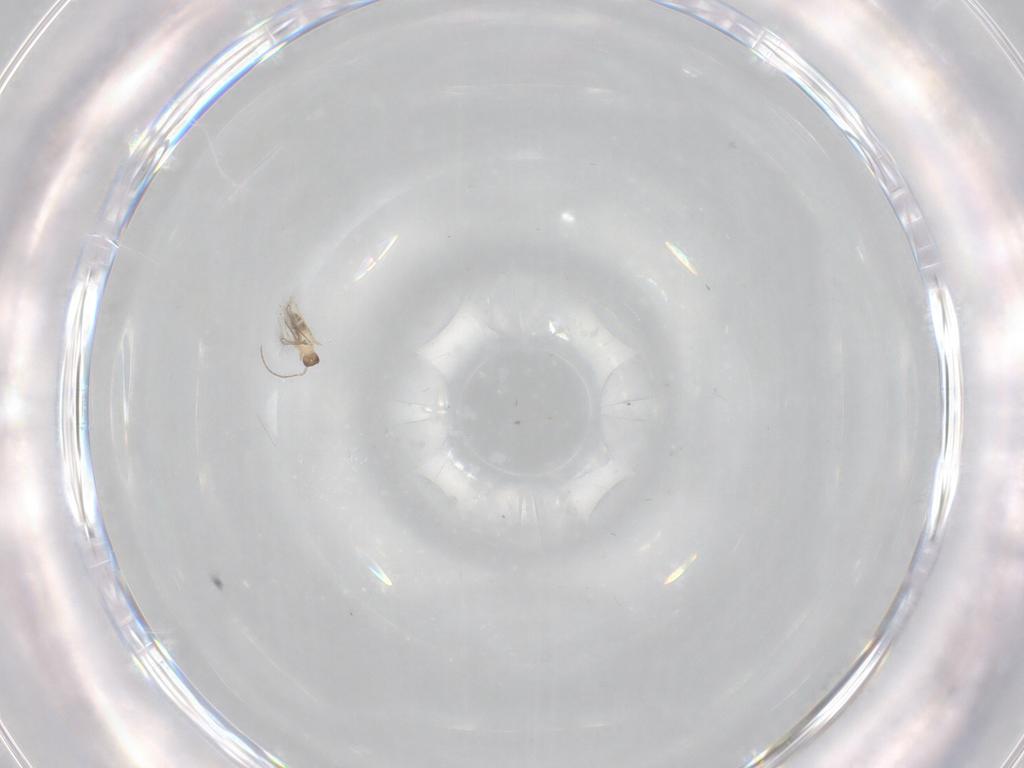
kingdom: Animalia
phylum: Arthropoda
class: Insecta
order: Hymenoptera
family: Mymaridae
